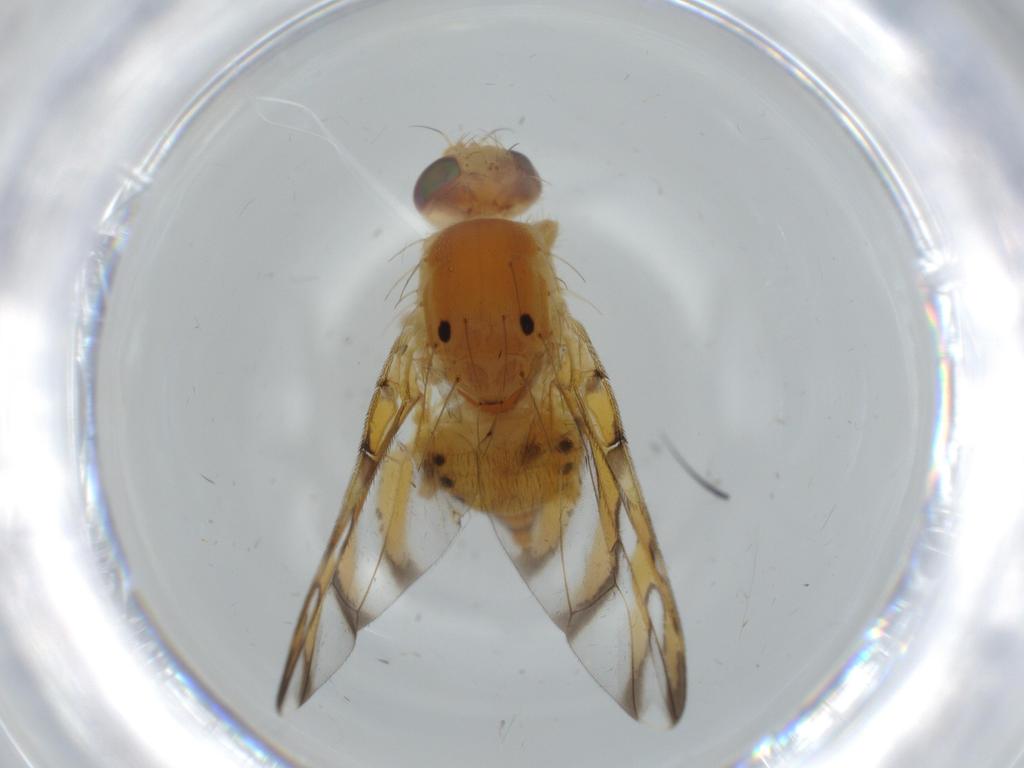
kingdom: Animalia
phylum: Arthropoda
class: Insecta
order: Diptera
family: Tephritidae
